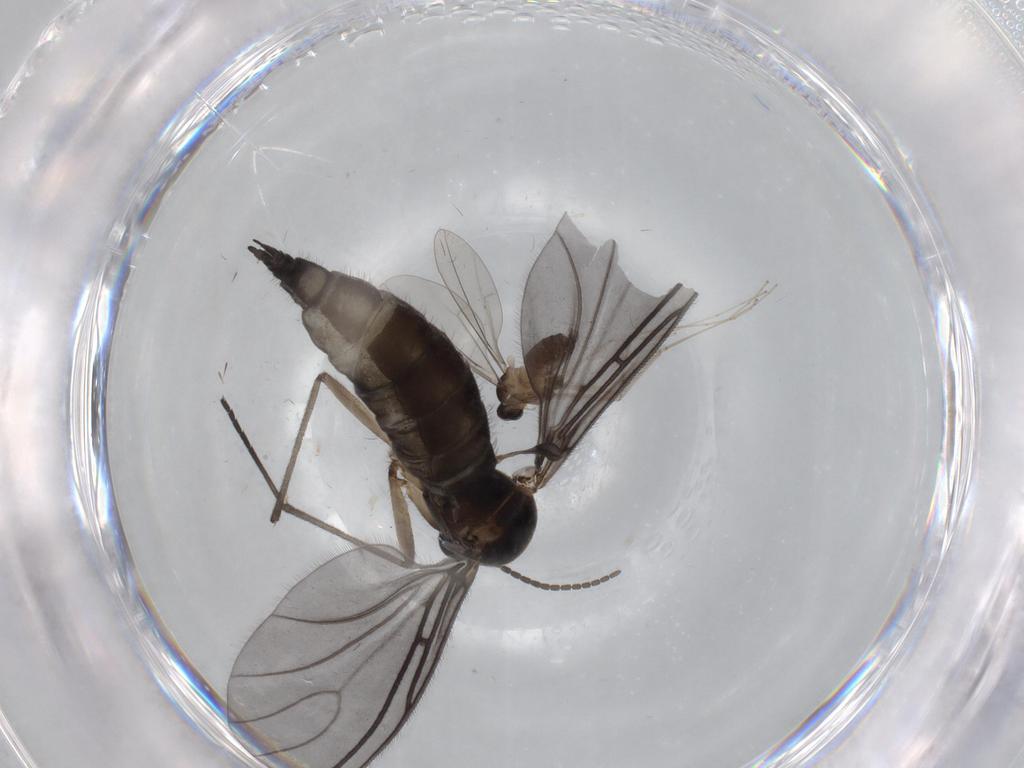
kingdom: Animalia
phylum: Arthropoda
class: Insecta
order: Diptera
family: Sciaridae
